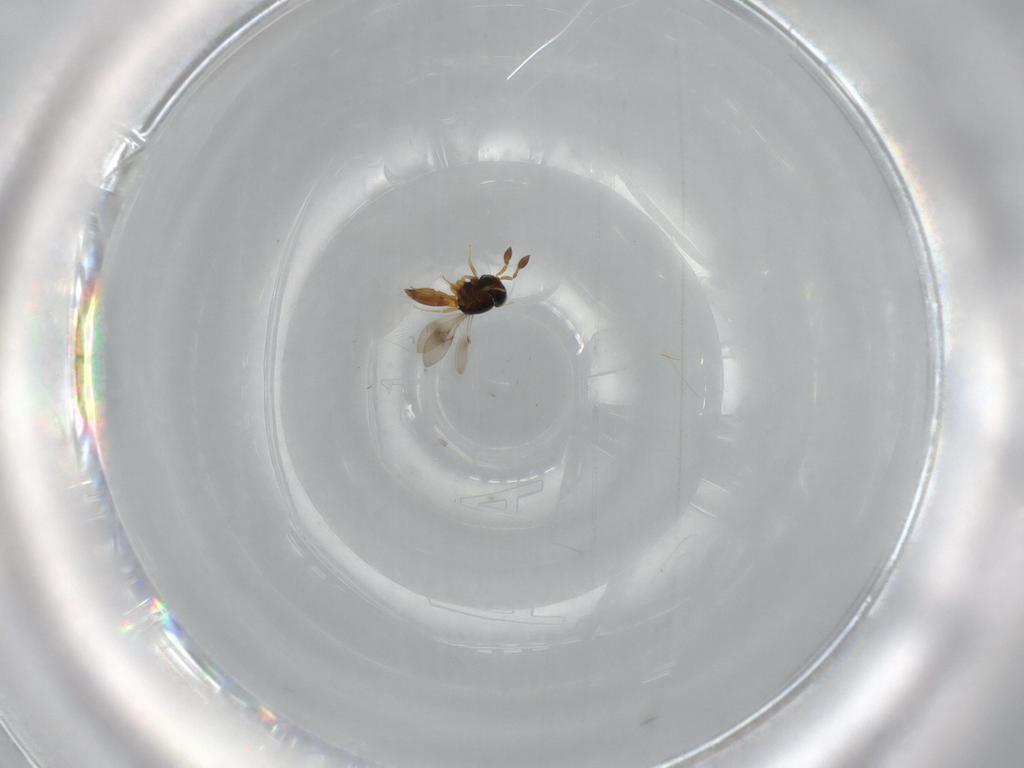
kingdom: Animalia
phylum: Arthropoda
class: Insecta
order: Hymenoptera
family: Scelionidae
